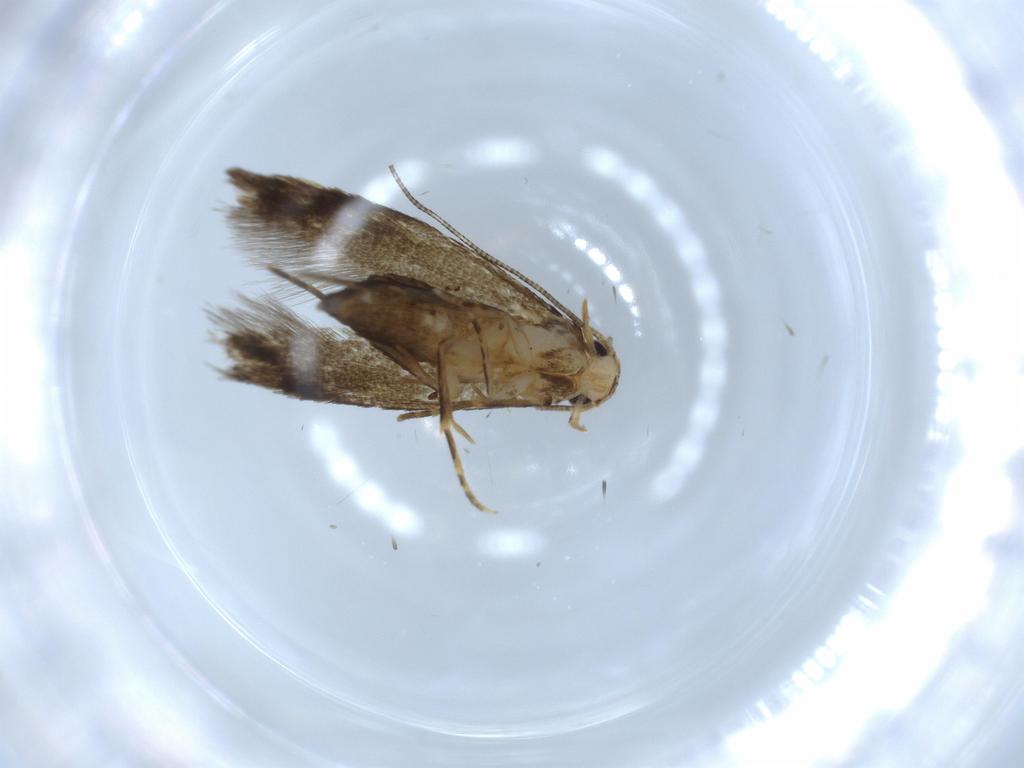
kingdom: Animalia
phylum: Arthropoda
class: Insecta
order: Lepidoptera
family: Tineidae
